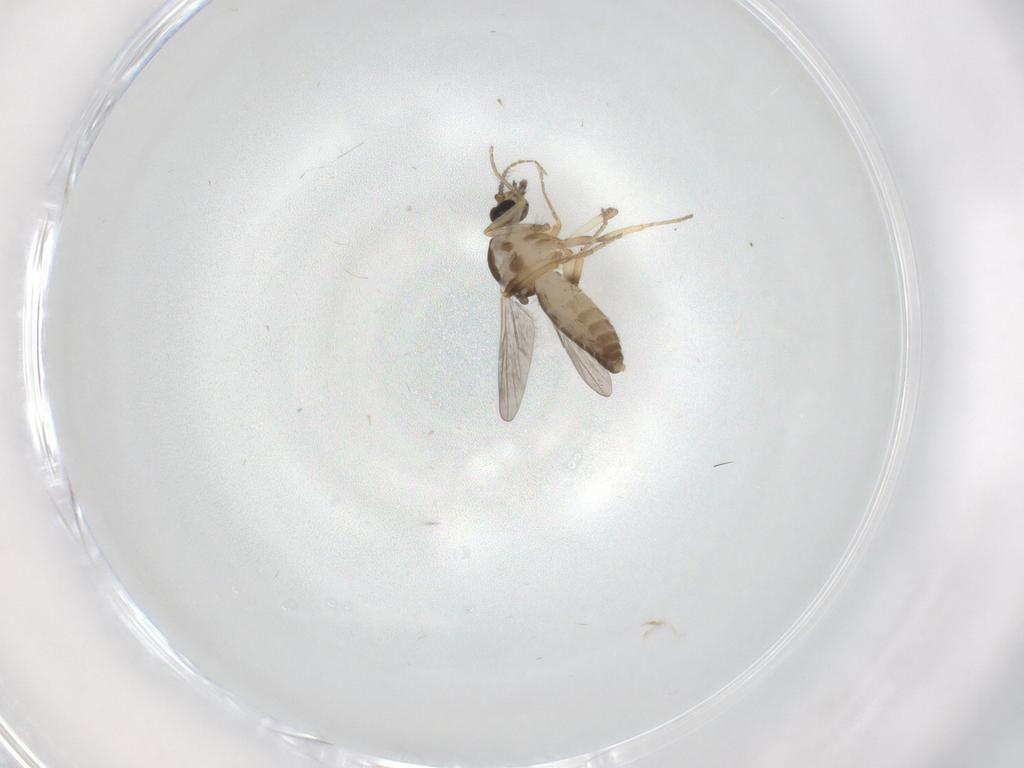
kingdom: Animalia
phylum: Arthropoda
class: Insecta
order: Diptera
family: Ceratopogonidae
